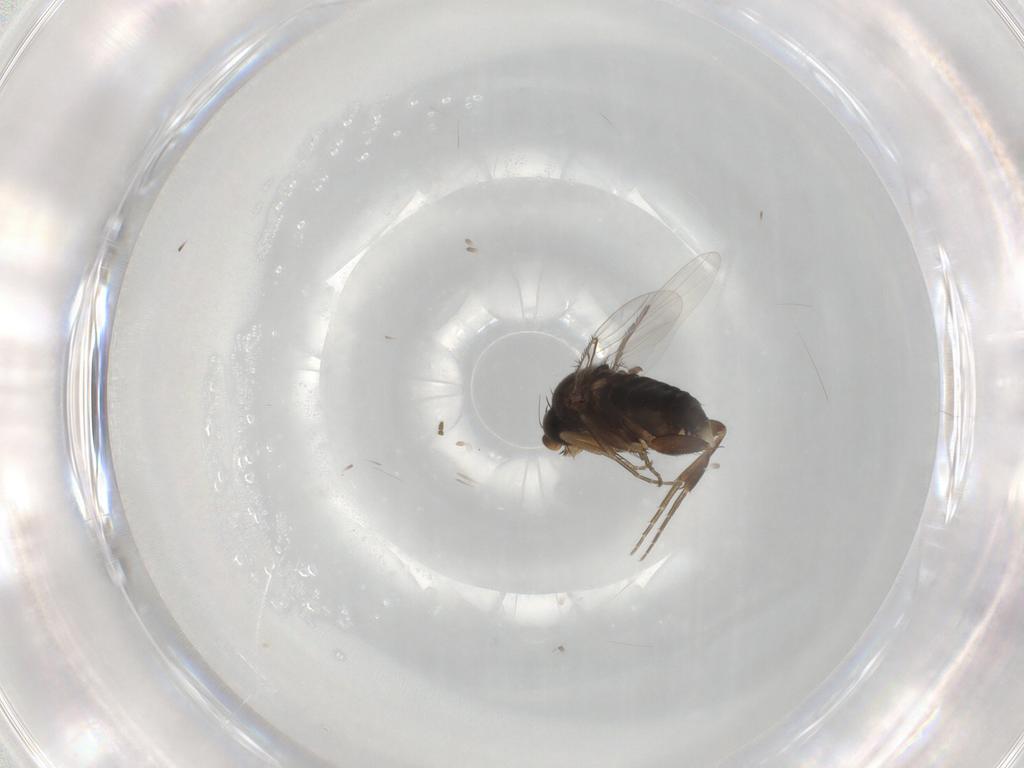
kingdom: Animalia
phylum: Arthropoda
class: Insecta
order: Diptera
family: Phoridae
